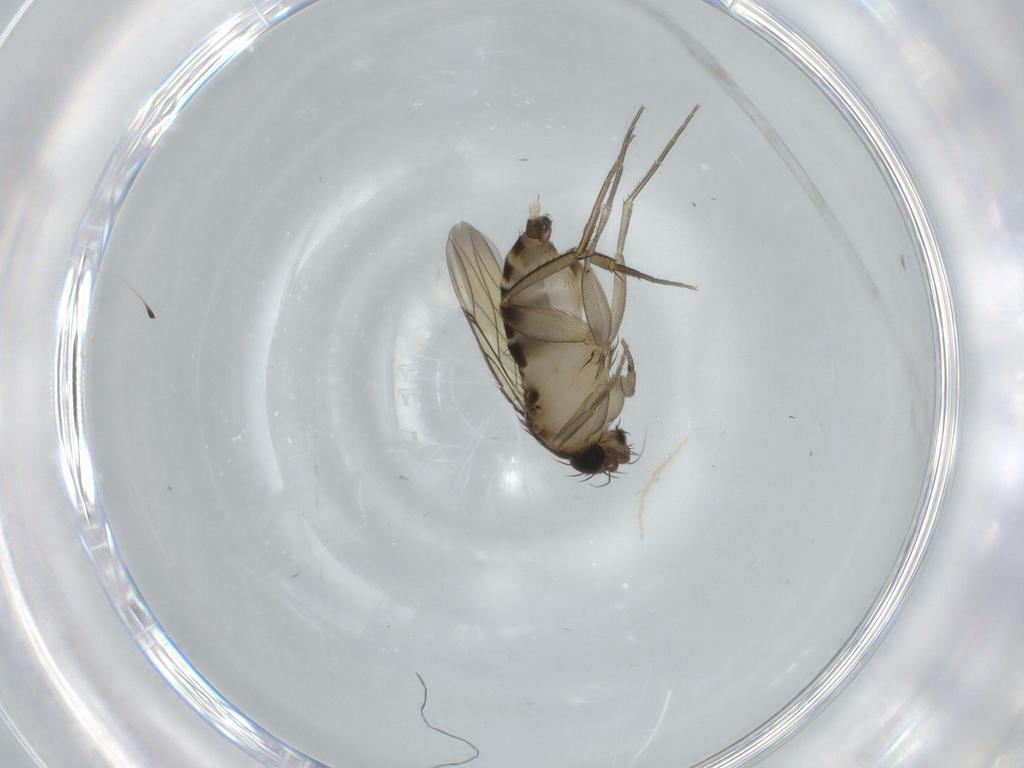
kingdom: Animalia
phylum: Arthropoda
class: Insecta
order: Diptera
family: Phoridae
